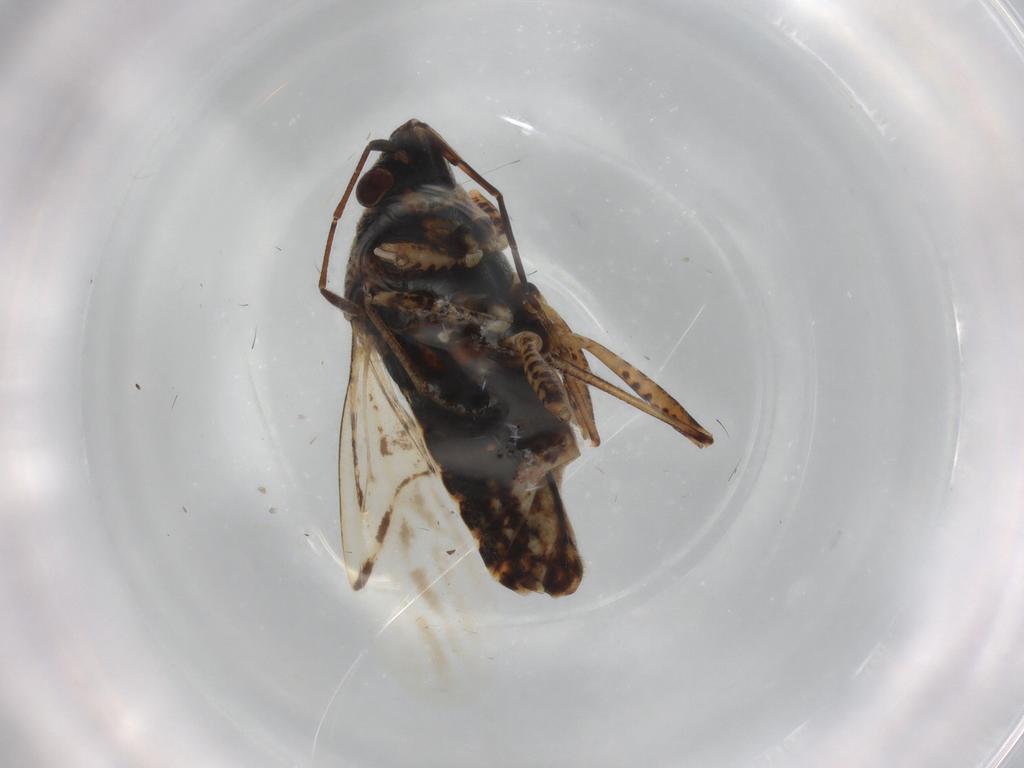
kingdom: Animalia
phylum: Arthropoda
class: Insecta
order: Hemiptera
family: Lygaeidae
